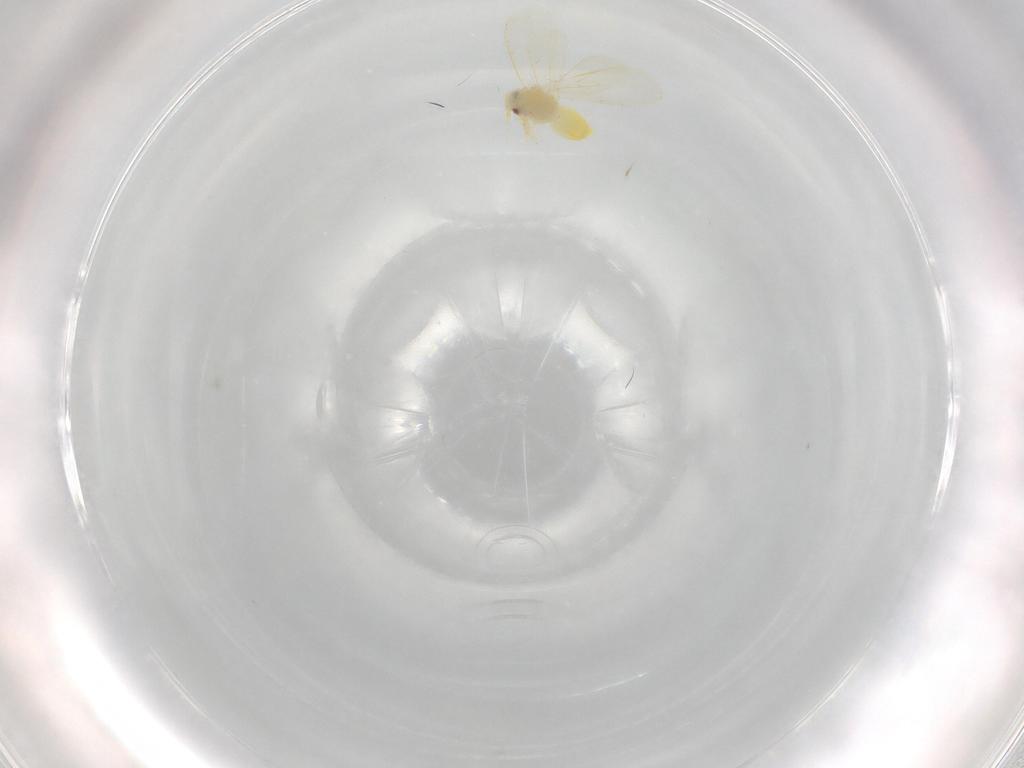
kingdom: Animalia
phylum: Arthropoda
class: Insecta
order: Hemiptera
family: Aleyrodidae
